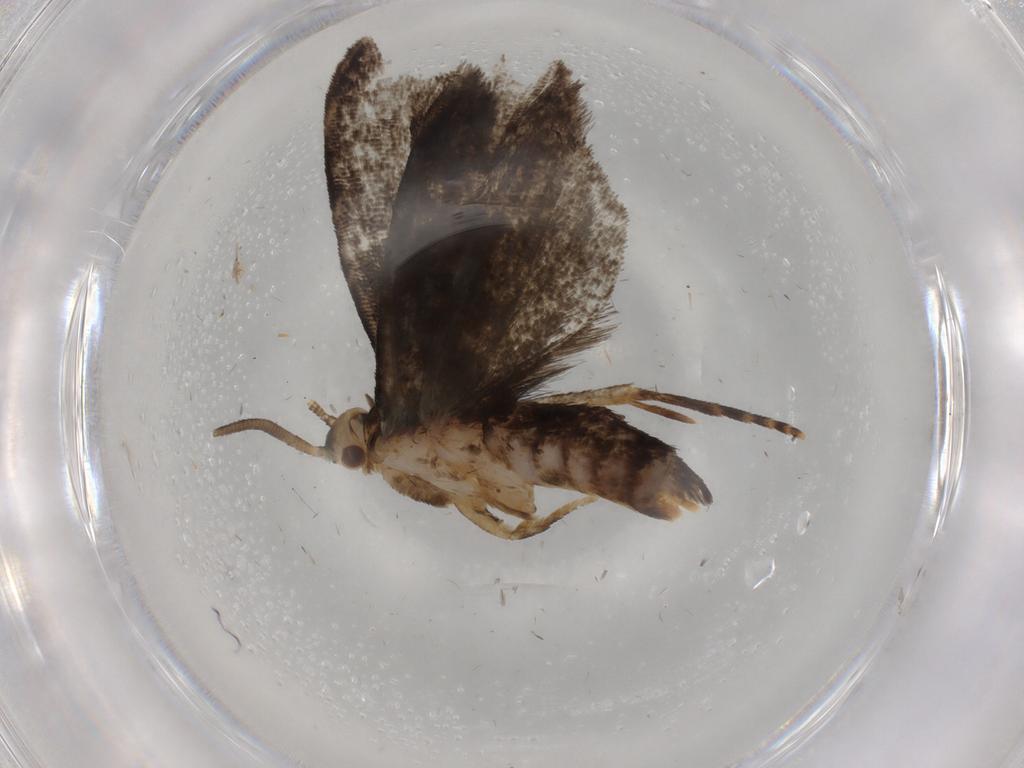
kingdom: Animalia
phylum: Arthropoda
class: Insecta
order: Lepidoptera
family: Dryadaulidae
